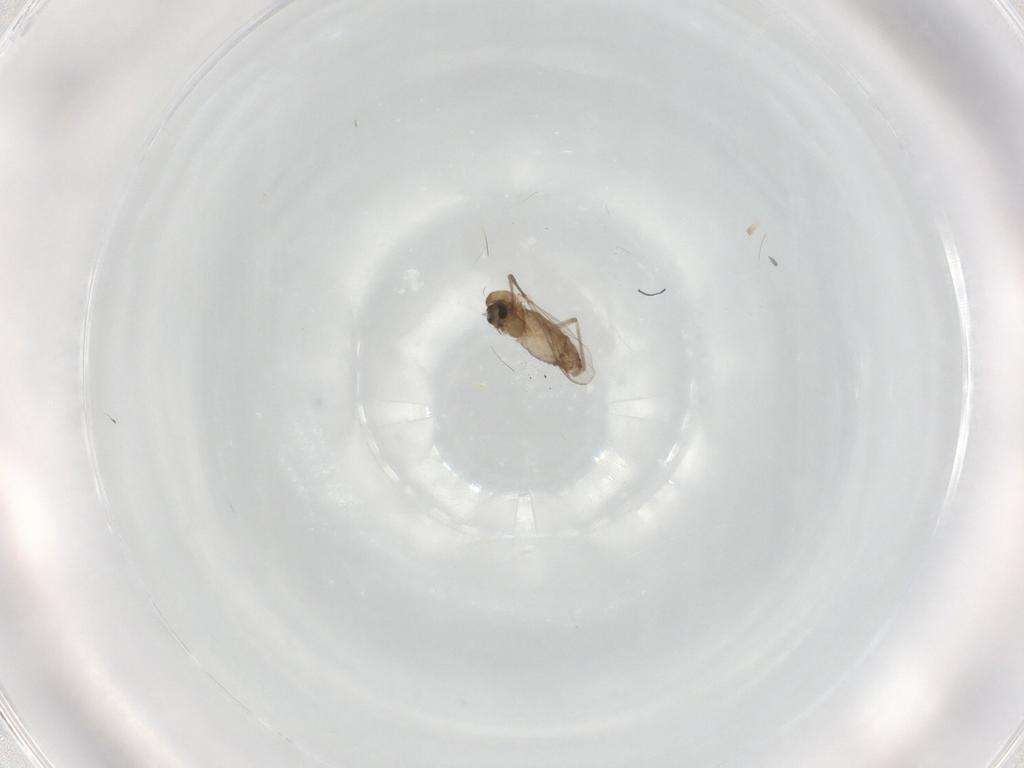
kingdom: Animalia
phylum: Arthropoda
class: Insecta
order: Diptera
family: Chironomidae
